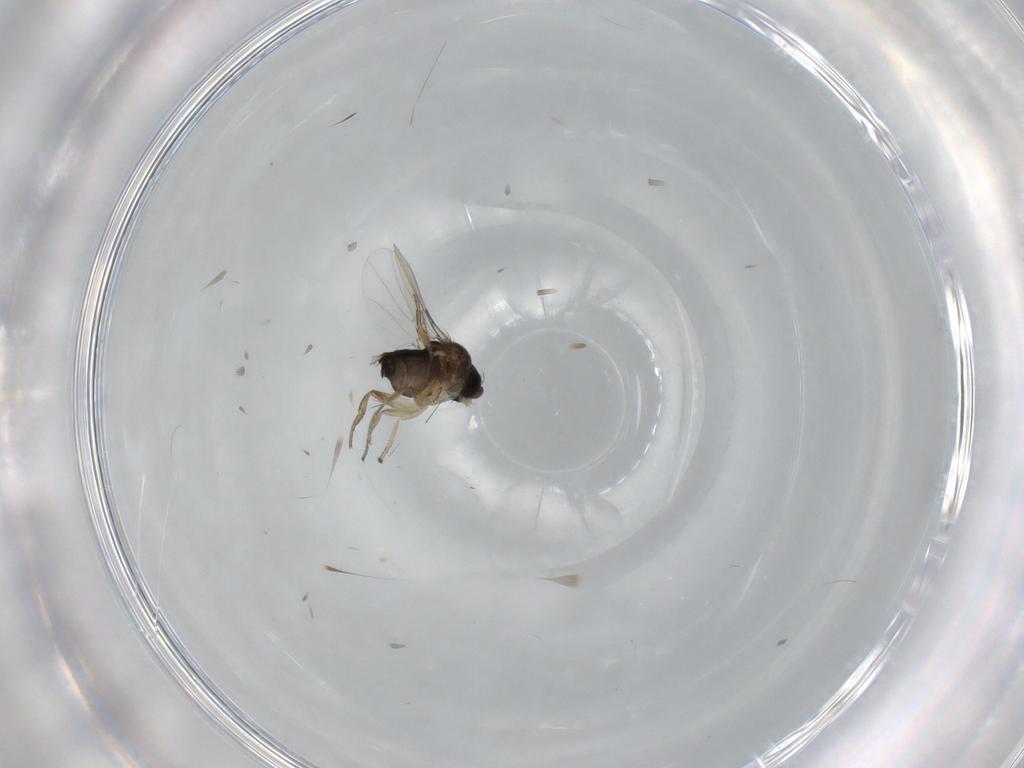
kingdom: Animalia
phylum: Arthropoda
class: Insecta
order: Diptera
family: Phoridae
